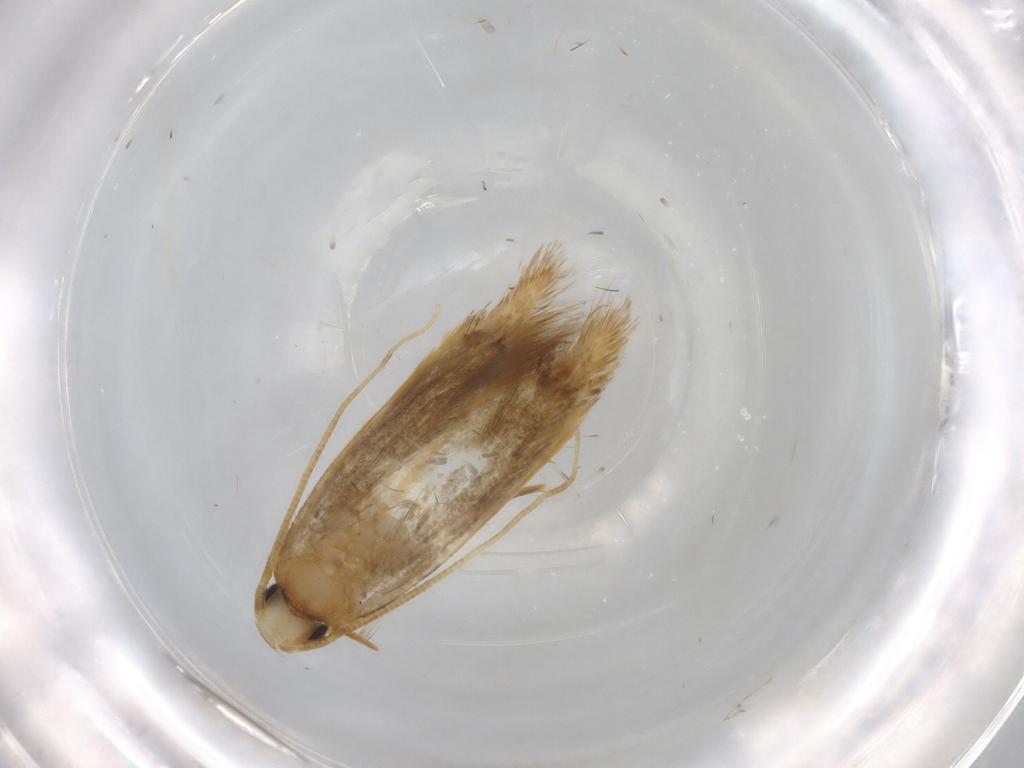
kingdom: Animalia
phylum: Arthropoda
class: Insecta
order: Lepidoptera
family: Tineidae
